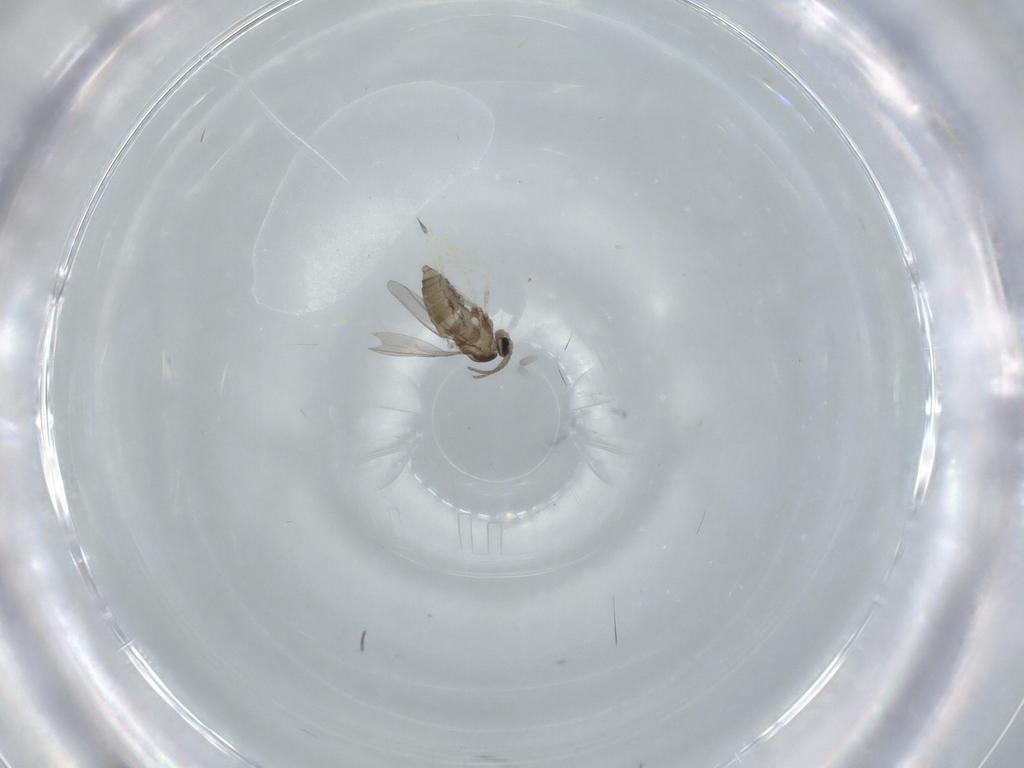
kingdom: Animalia
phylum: Arthropoda
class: Insecta
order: Diptera
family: Cecidomyiidae
